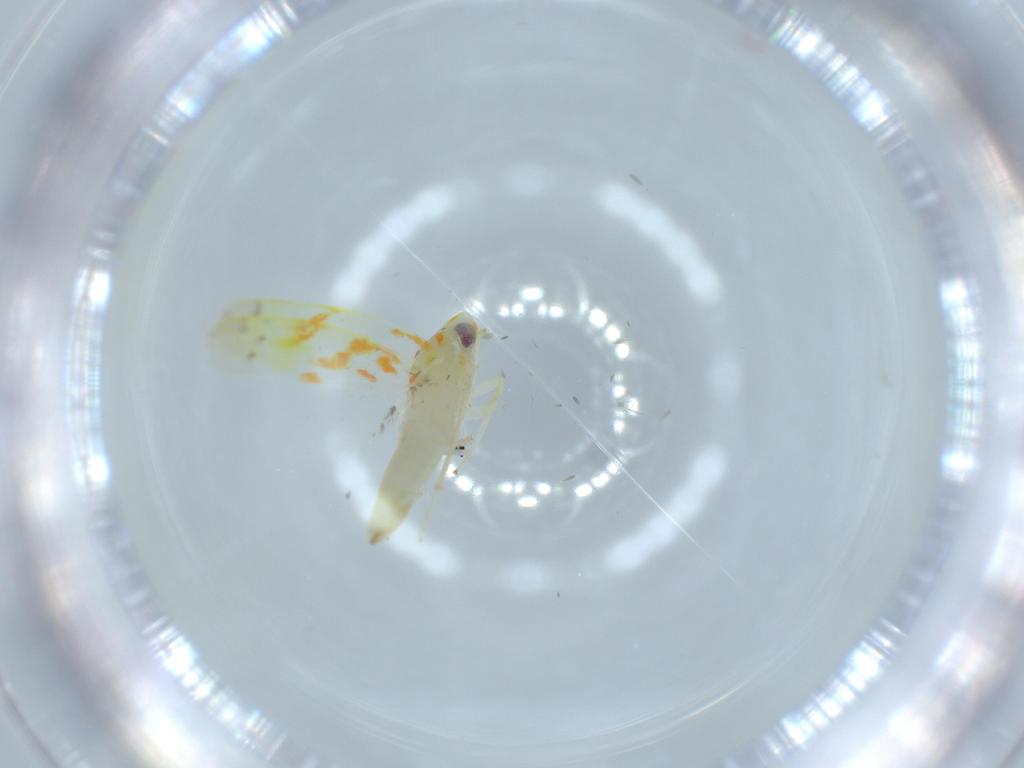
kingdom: Animalia
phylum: Arthropoda
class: Insecta
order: Hemiptera
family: Cicadellidae
